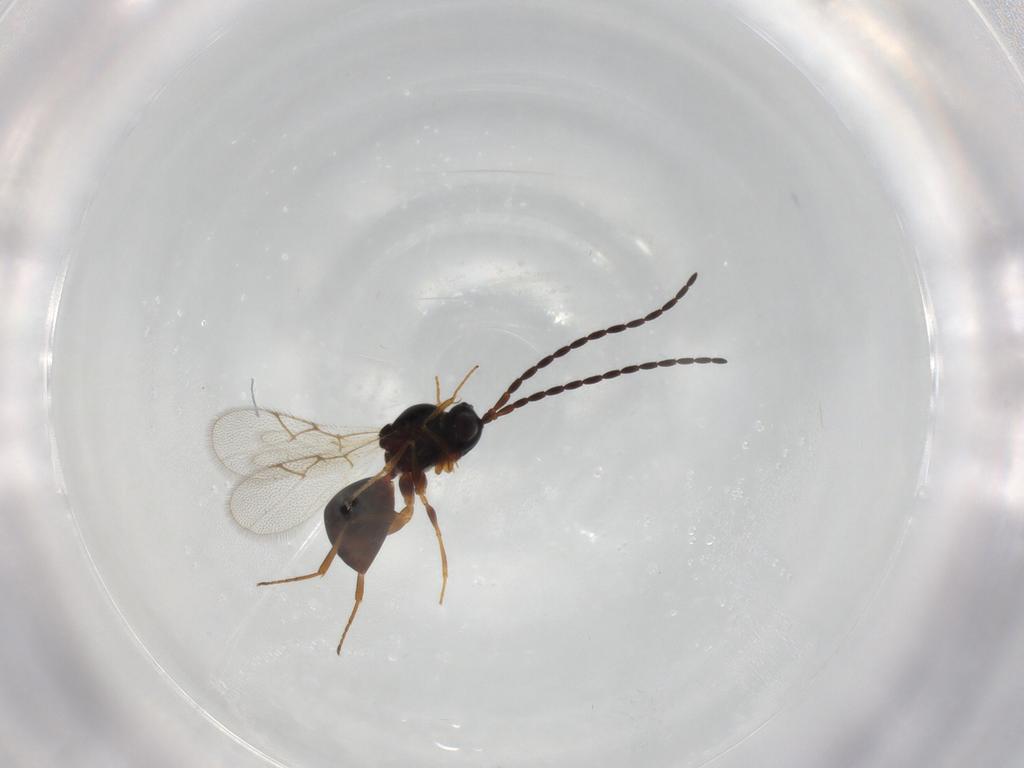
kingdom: Animalia
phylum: Arthropoda
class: Insecta
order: Hymenoptera
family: Figitidae
